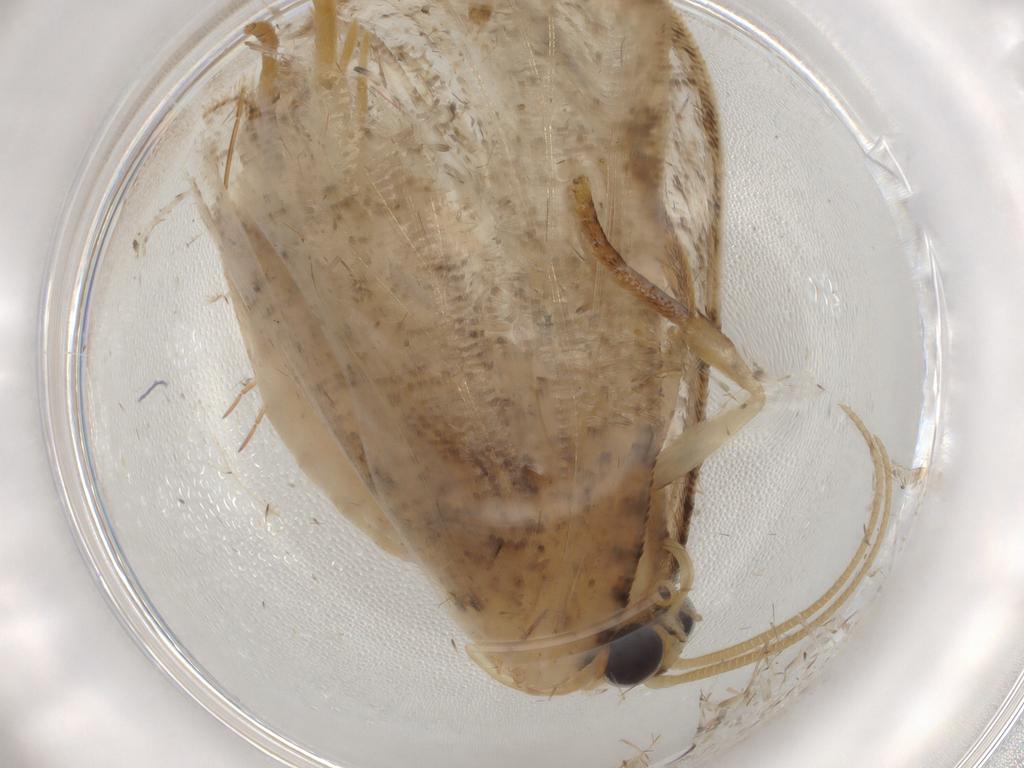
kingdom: Animalia
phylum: Arthropoda
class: Insecta
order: Lepidoptera
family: Uraniidae
